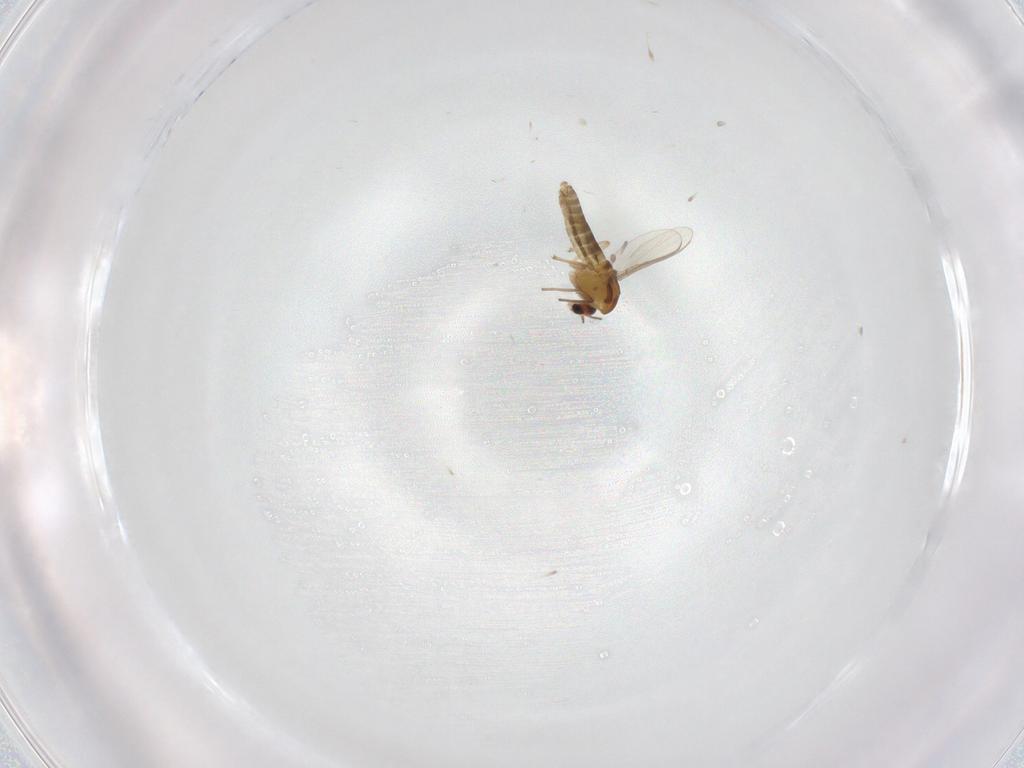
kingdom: Animalia
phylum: Arthropoda
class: Insecta
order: Diptera
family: Chironomidae
